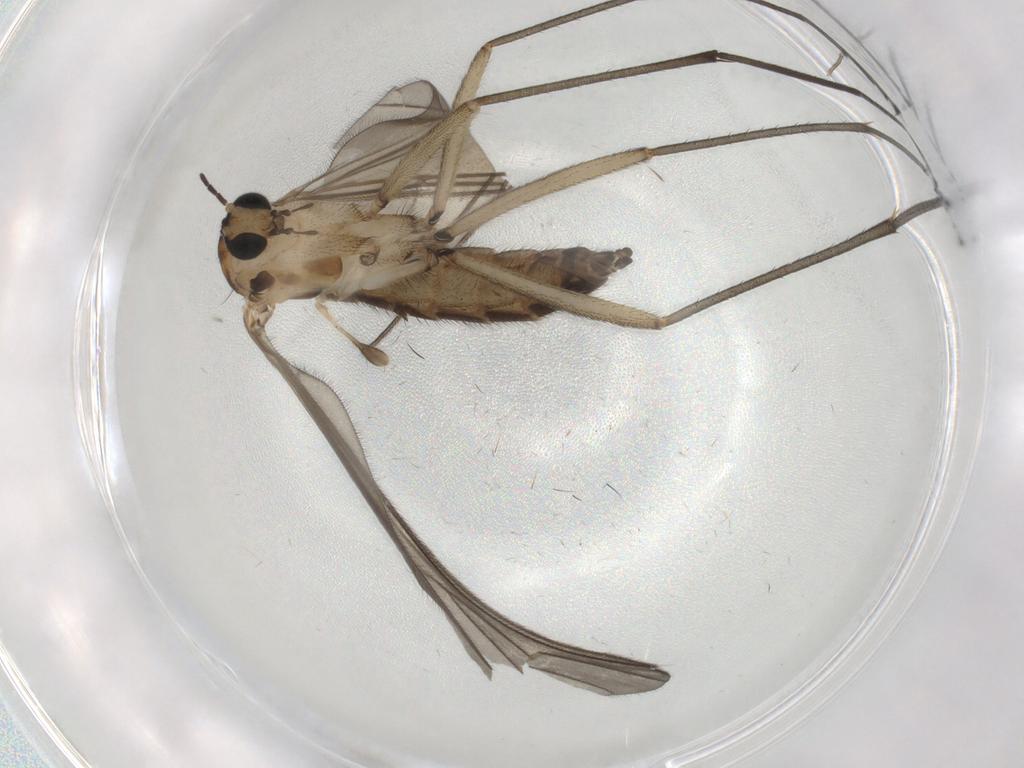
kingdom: Animalia
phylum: Arthropoda
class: Insecta
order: Diptera
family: Sciaridae
